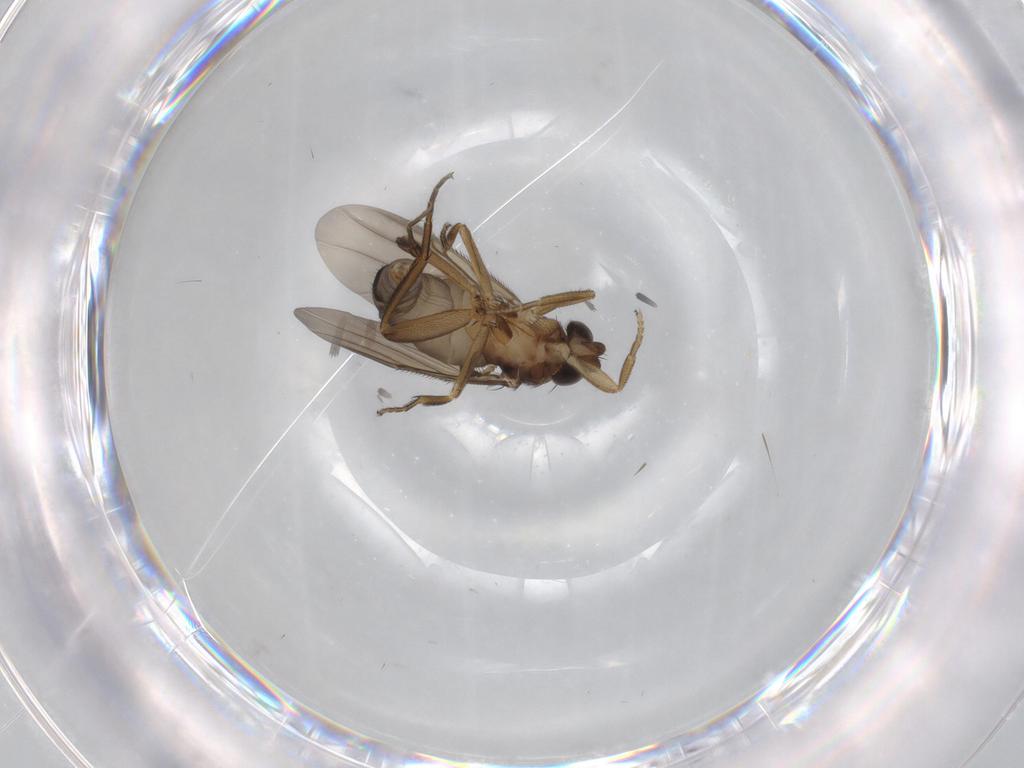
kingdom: Animalia
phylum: Arthropoda
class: Insecta
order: Diptera
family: Phoridae
